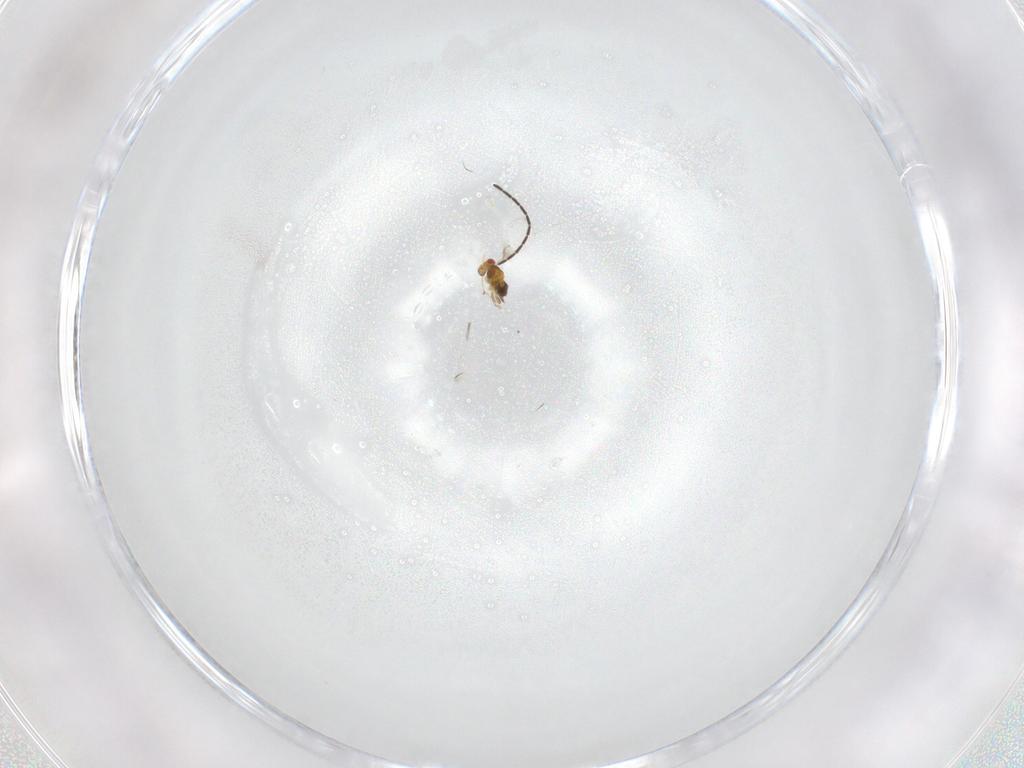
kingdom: Animalia
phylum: Arthropoda
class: Insecta
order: Hymenoptera
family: Trichogrammatidae
